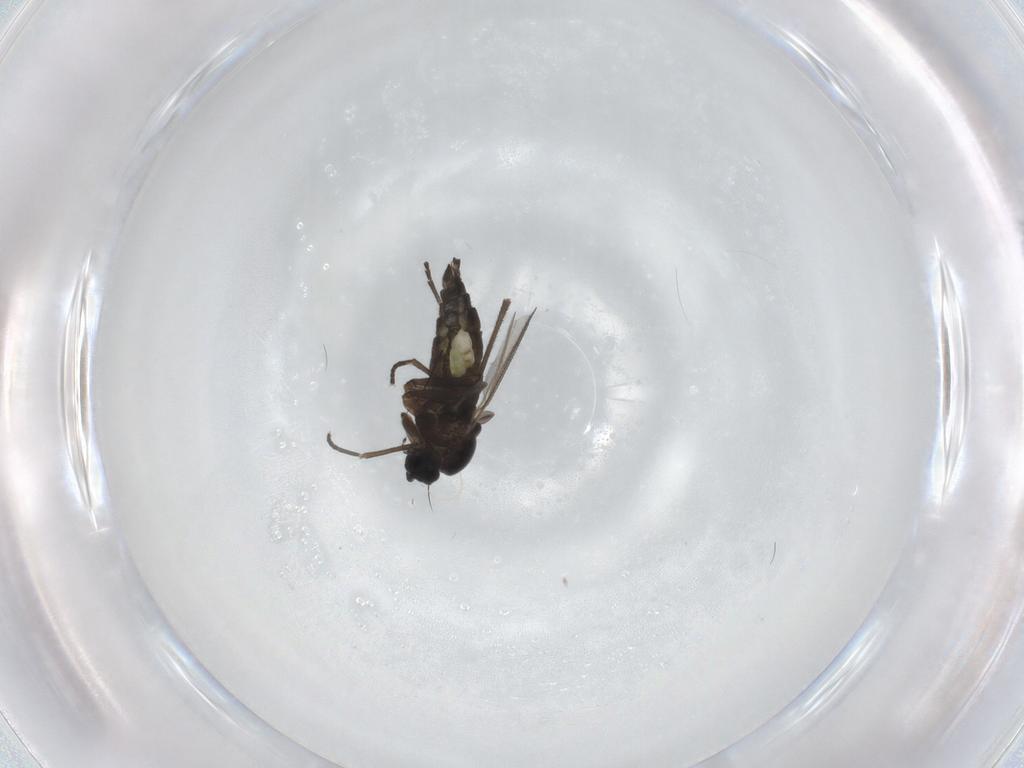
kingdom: Animalia
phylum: Arthropoda
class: Insecta
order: Diptera
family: Sciaridae
